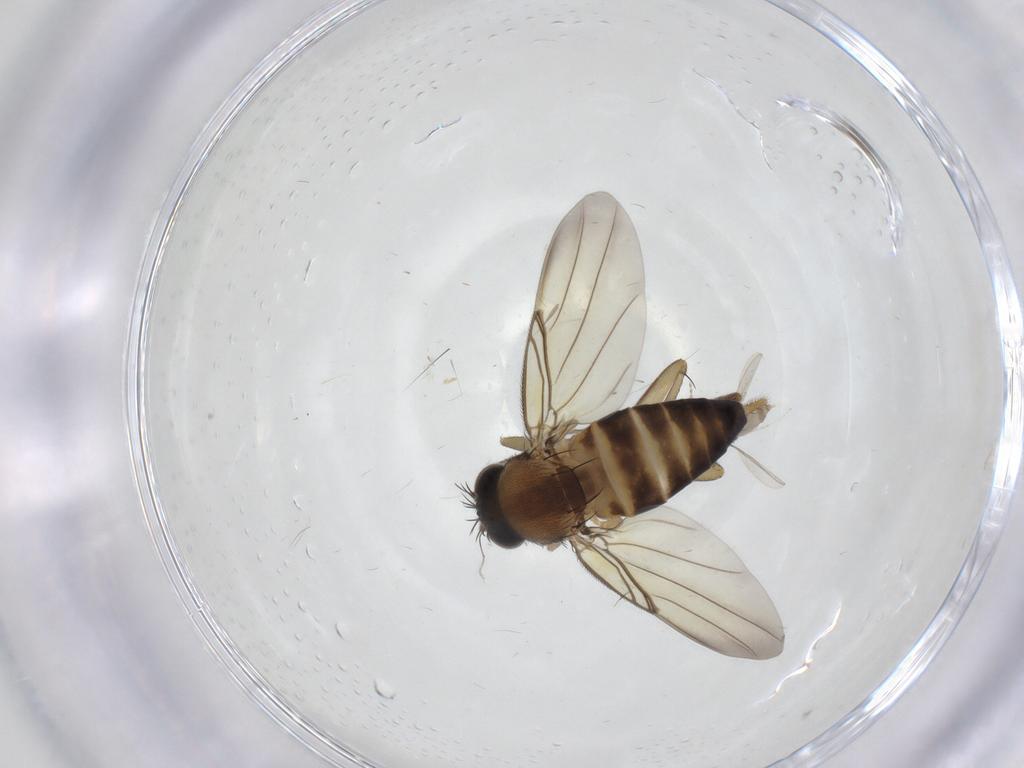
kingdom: Animalia
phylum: Arthropoda
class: Insecta
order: Diptera
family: Phoridae
